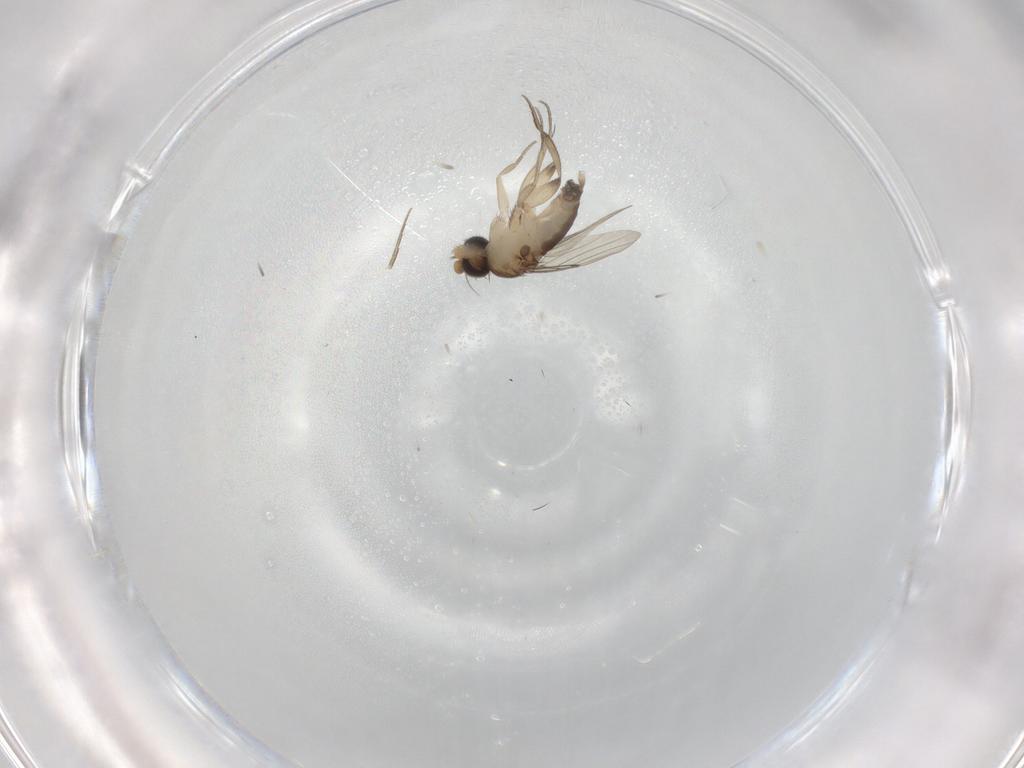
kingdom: Animalia
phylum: Arthropoda
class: Insecta
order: Diptera
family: Phoridae
